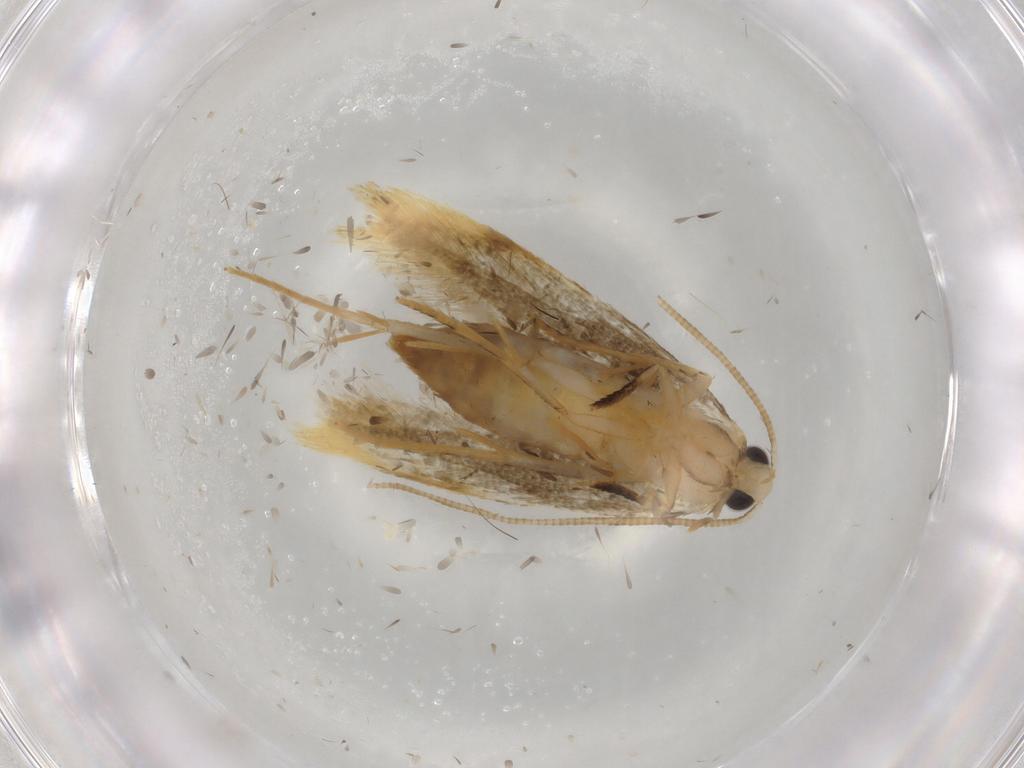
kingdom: Animalia
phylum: Arthropoda
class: Insecta
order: Lepidoptera
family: Tineidae
